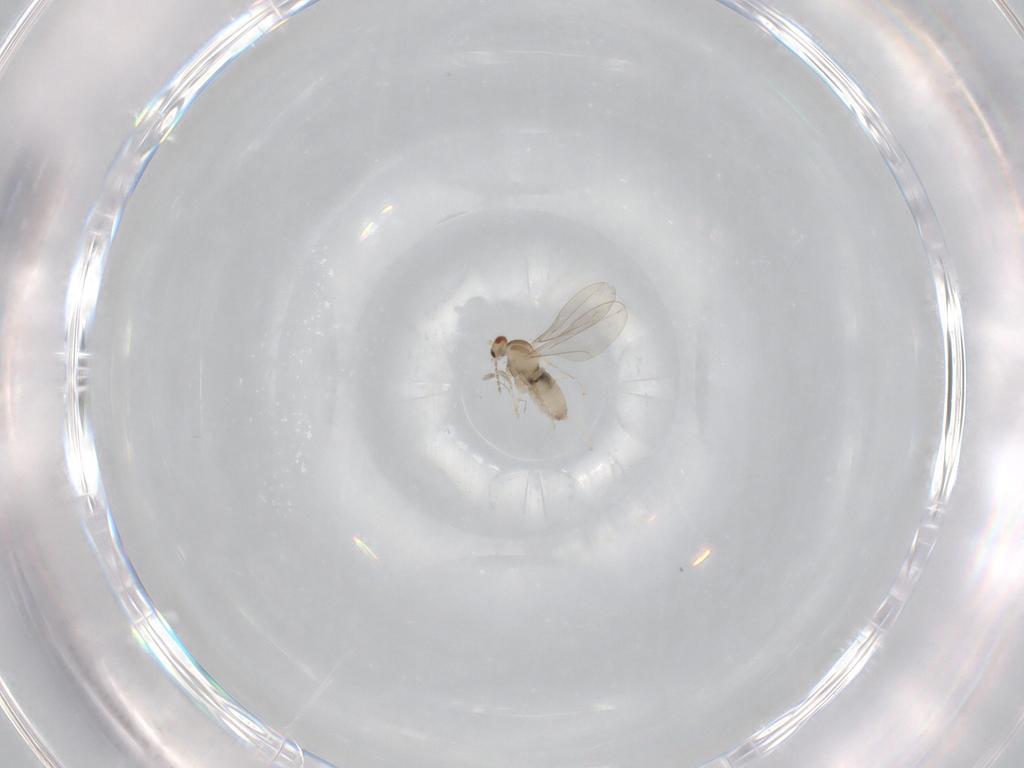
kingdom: Animalia
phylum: Arthropoda
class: Insecta
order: Diptera
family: Cecidomyiidae
